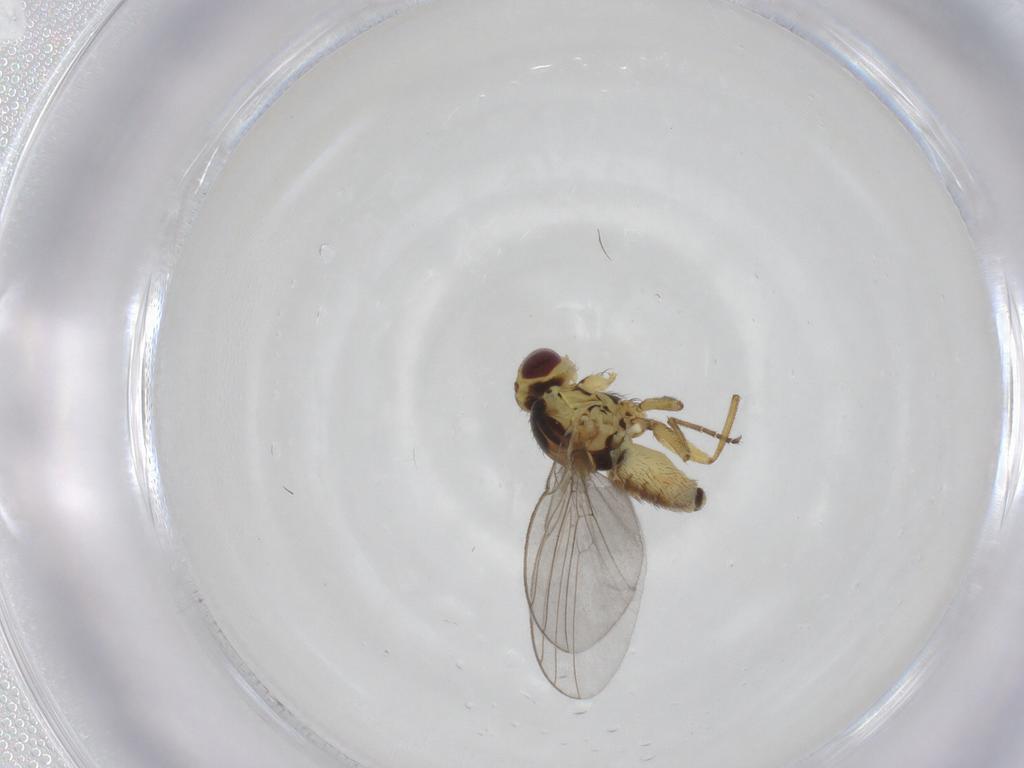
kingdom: Animalia
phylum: Arthropoda
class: Insecta
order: Diptera
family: Agromyzidae
